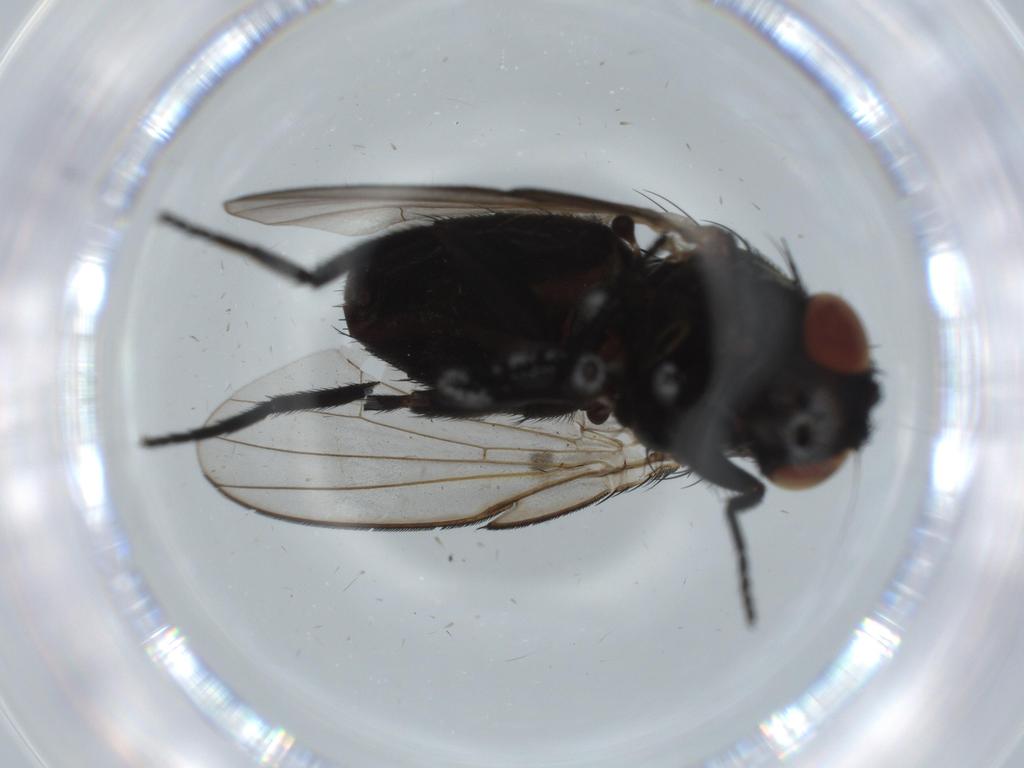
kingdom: Animalia
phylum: Arthropoda
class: Insecta
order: Diptera
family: Milichiidae
